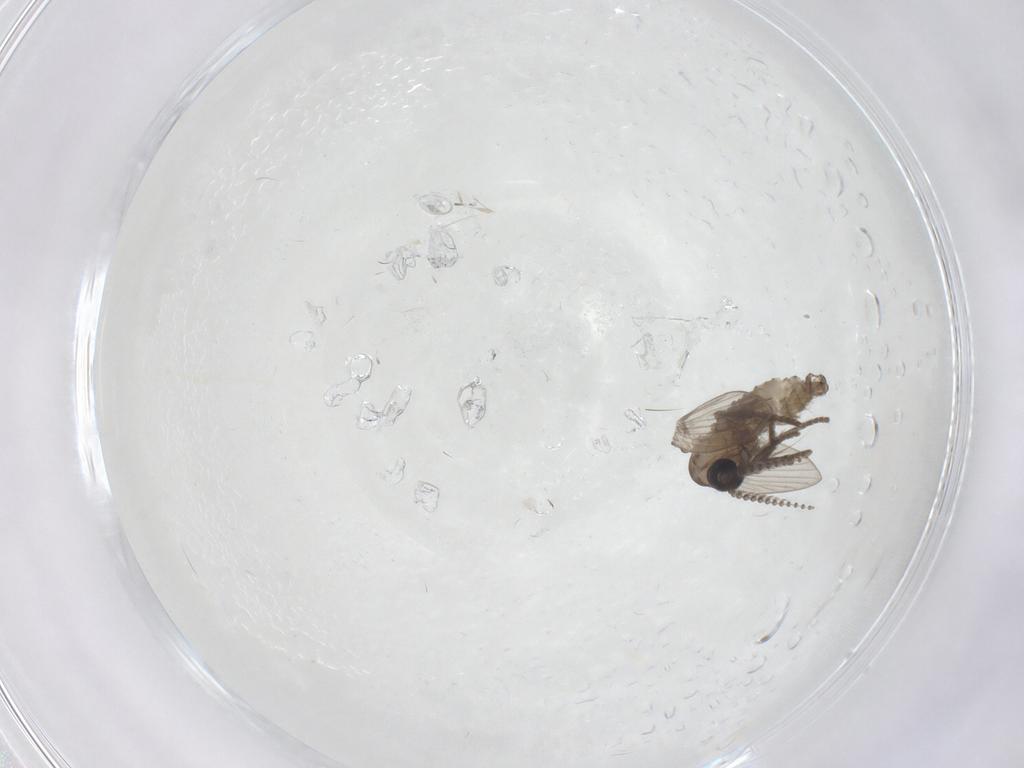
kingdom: Animalia
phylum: Arthropoda
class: Insecta
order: Diptera
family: Psychodidae
